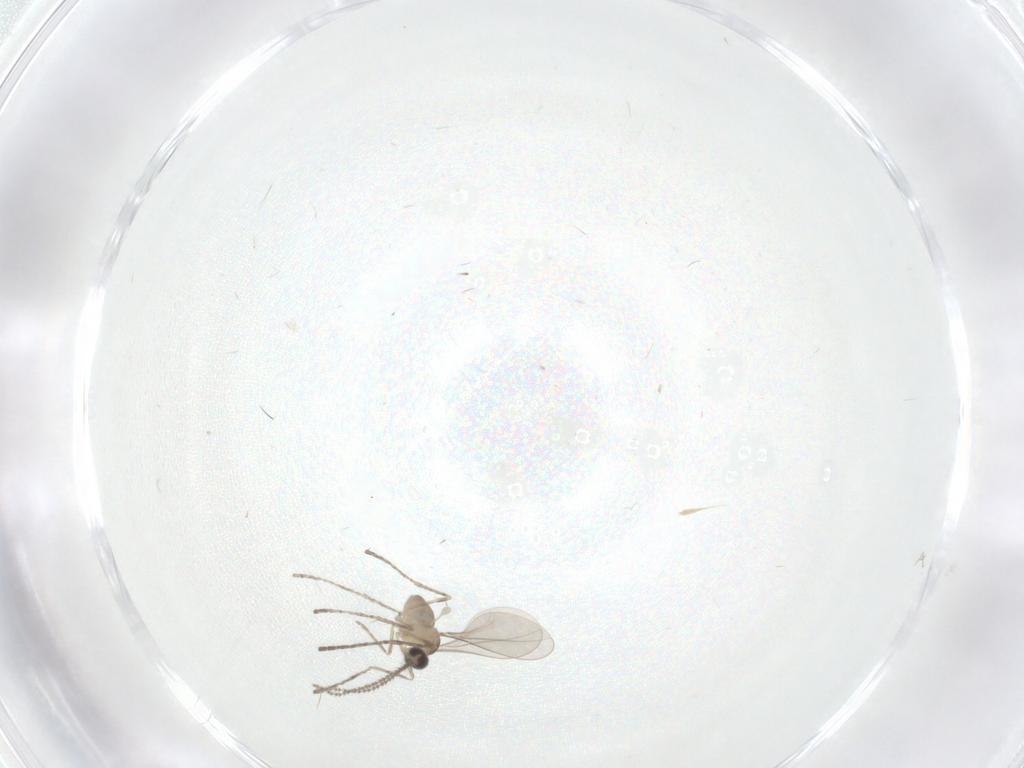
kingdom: Animalia
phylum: Arthropoda
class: Insecta
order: Diptera
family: Cecidomyiidae
